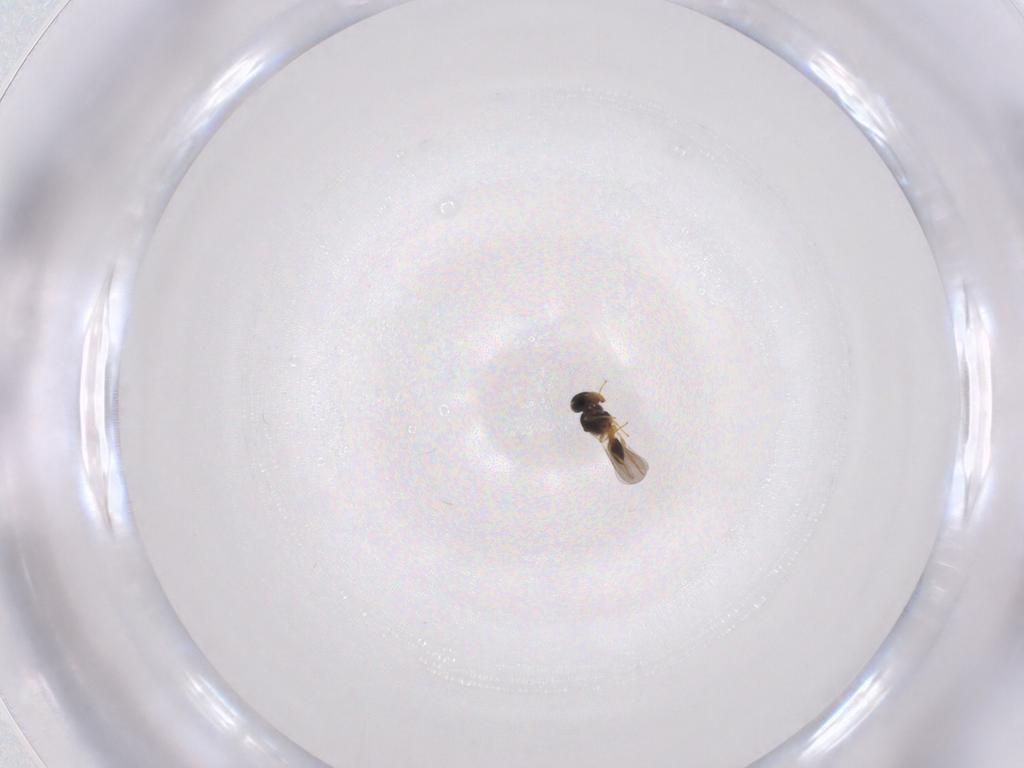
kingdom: Animalia
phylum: Arthropoda
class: Insecta
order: Hymenoptera
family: Platygastridae
